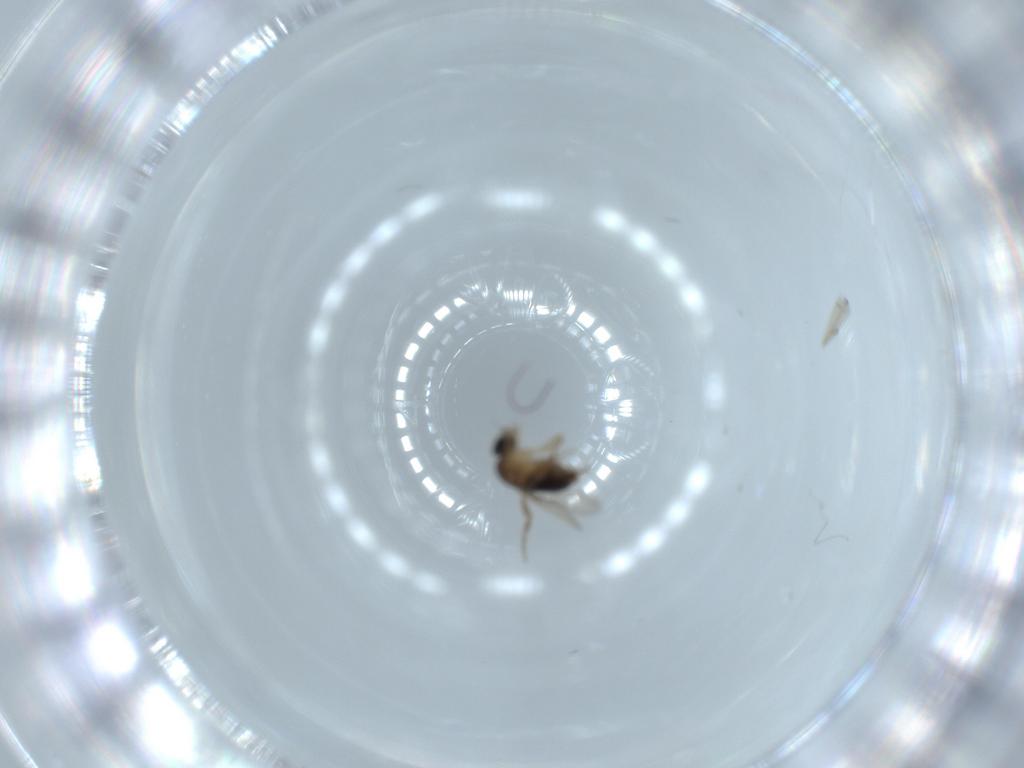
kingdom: Animalia
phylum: Arthropoda
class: Insecta
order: Diptera
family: Phoridae
